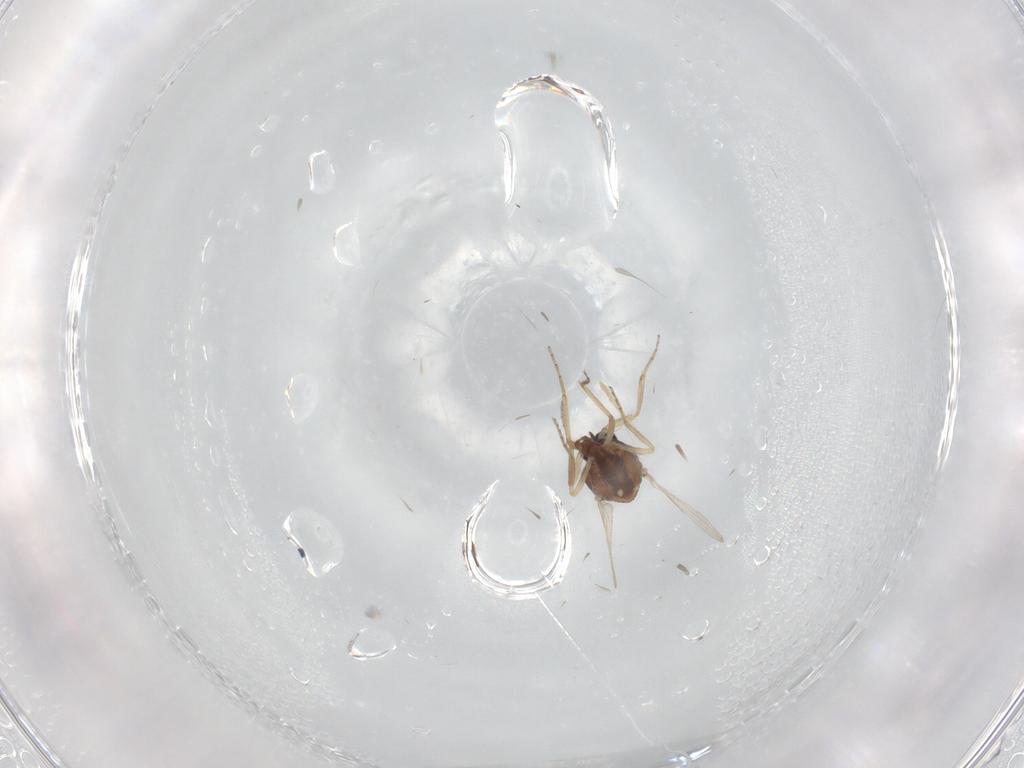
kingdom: Animalia
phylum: Arthropoda
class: Insecta
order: Diptera
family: Ceratopogonidae
